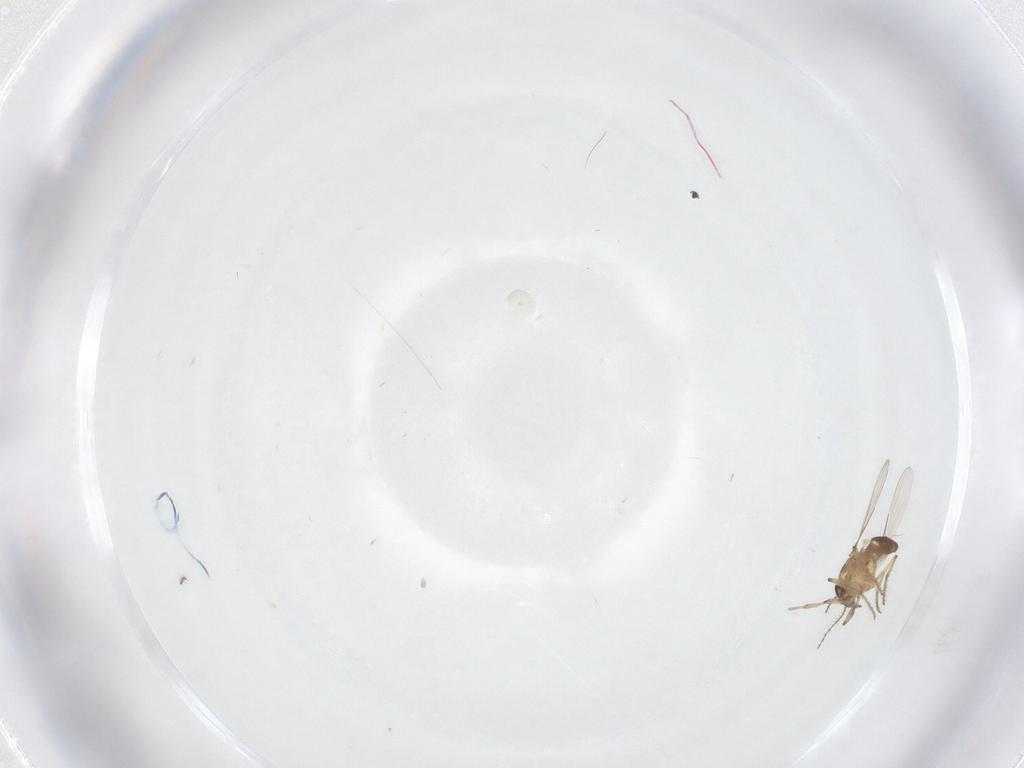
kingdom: Animalia
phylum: Arthropoda
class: Insecta
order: Diptera
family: Ceratopogonidae
